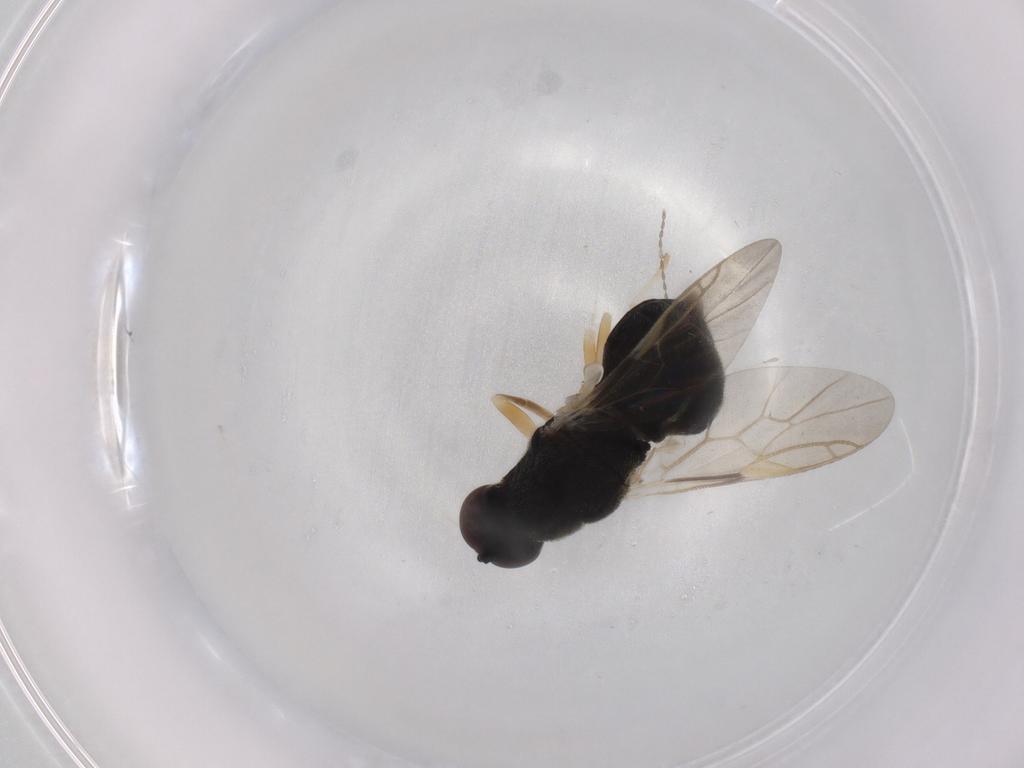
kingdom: Animalia
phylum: Arthropoda
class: Insecta
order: Diptera
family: Stratiomyidae
